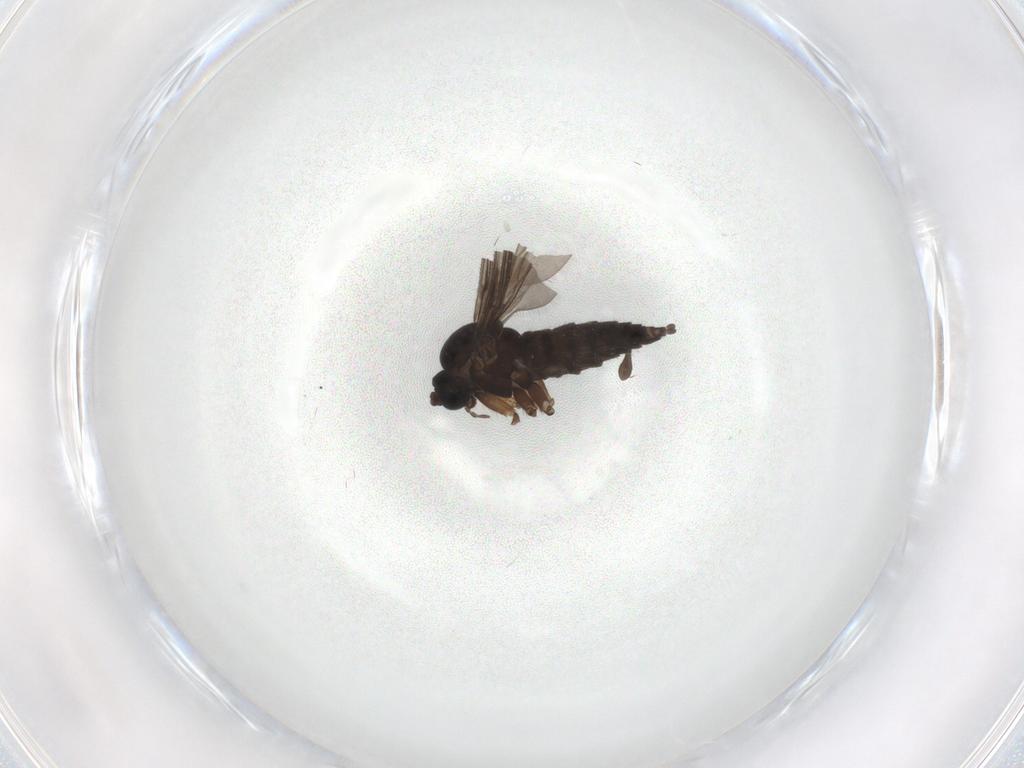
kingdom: Animalia
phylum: Arthropoda
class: Insecta
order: Diptera
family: Sciaridae
